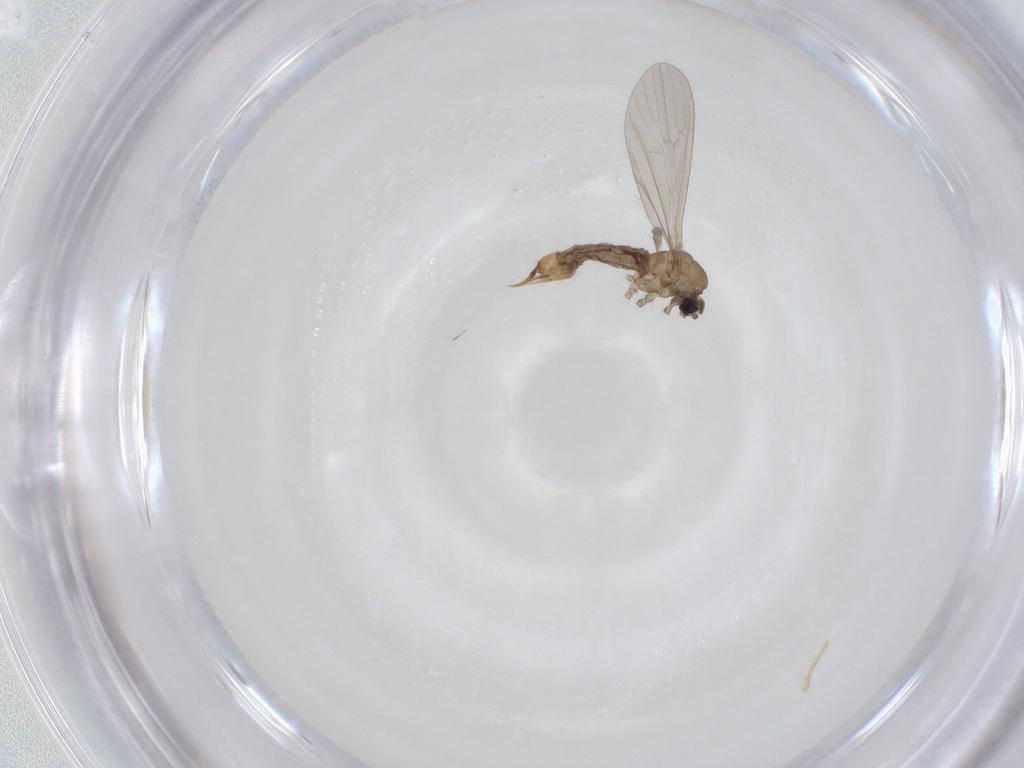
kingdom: Animalia
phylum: Arthropoda
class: Insecta
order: Diptera
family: Limoniidae
